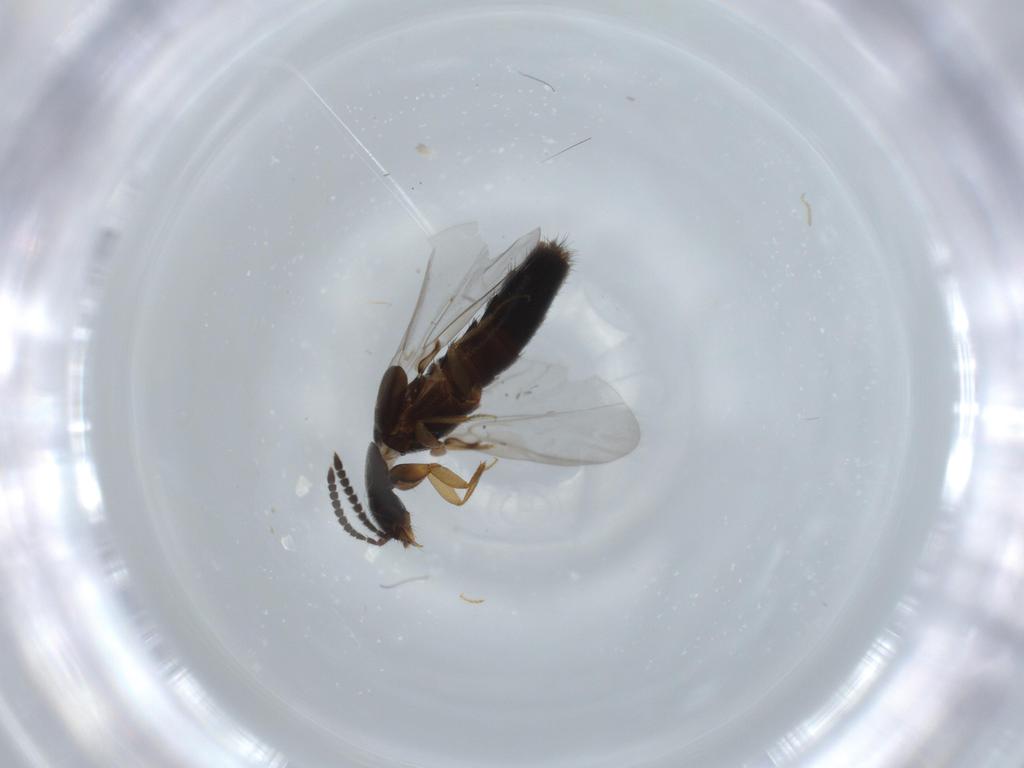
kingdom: Animalia
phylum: Arthropoda
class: Insecta
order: Coleoptera
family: Staphylinidae
